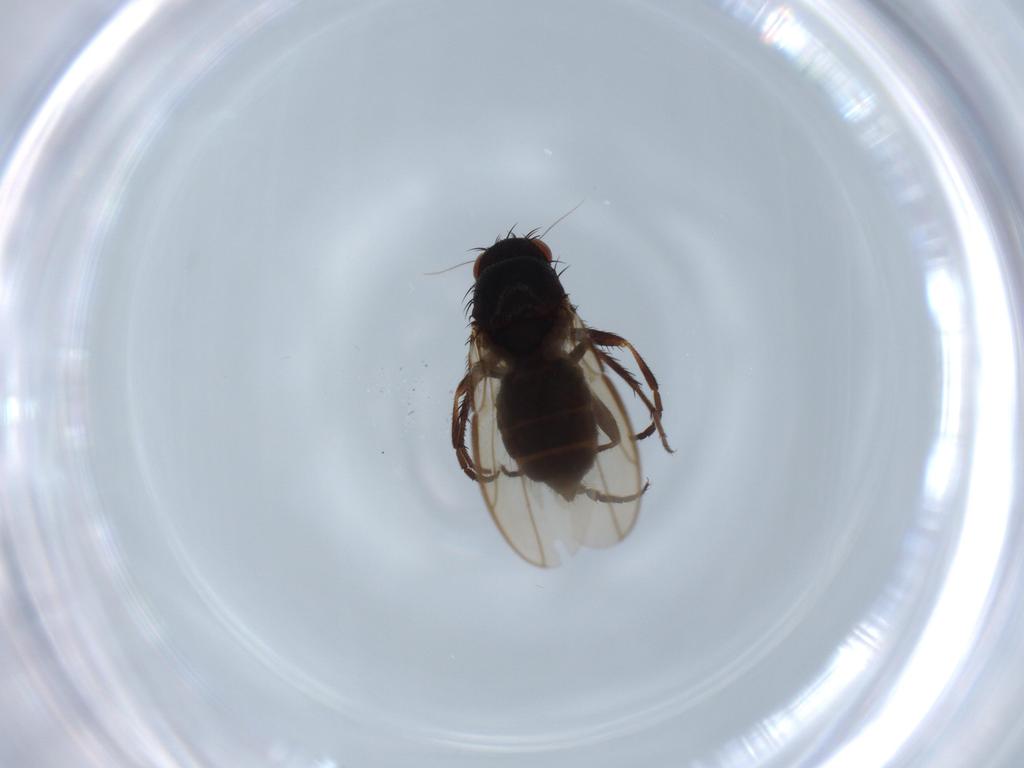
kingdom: Animalia
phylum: Arthropoda
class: Insecta
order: Diptera
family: Sphaeroceridae
